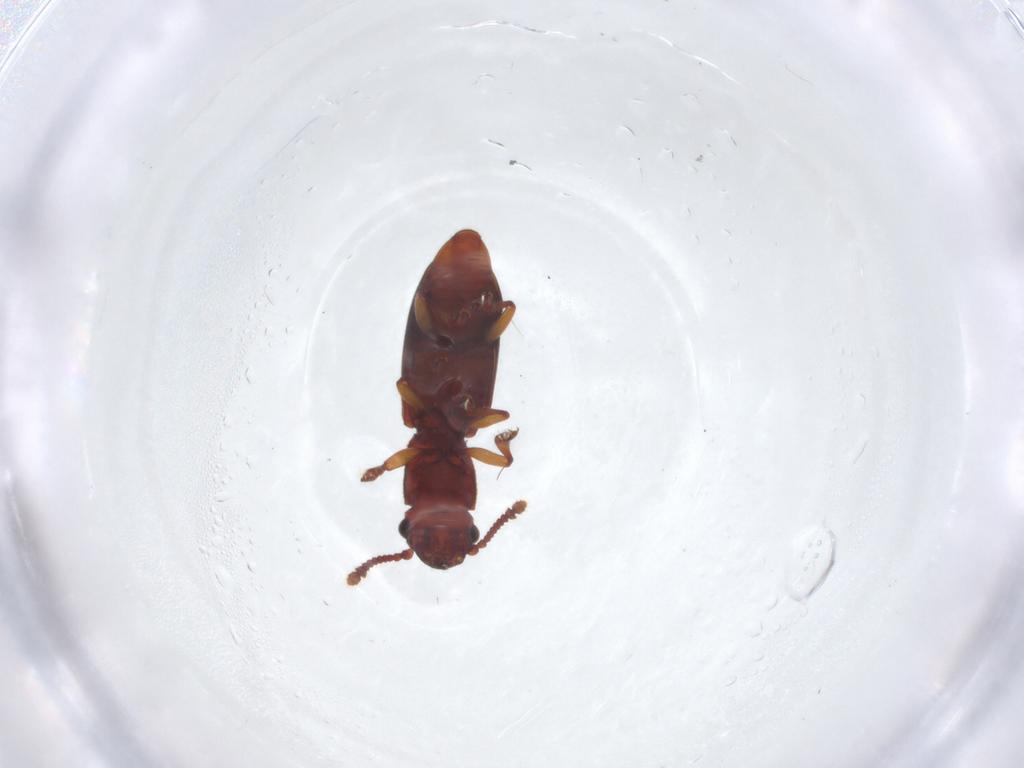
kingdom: Animalia
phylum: Arthropoda
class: Insecta
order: Coleoptera
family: Monotomidae
